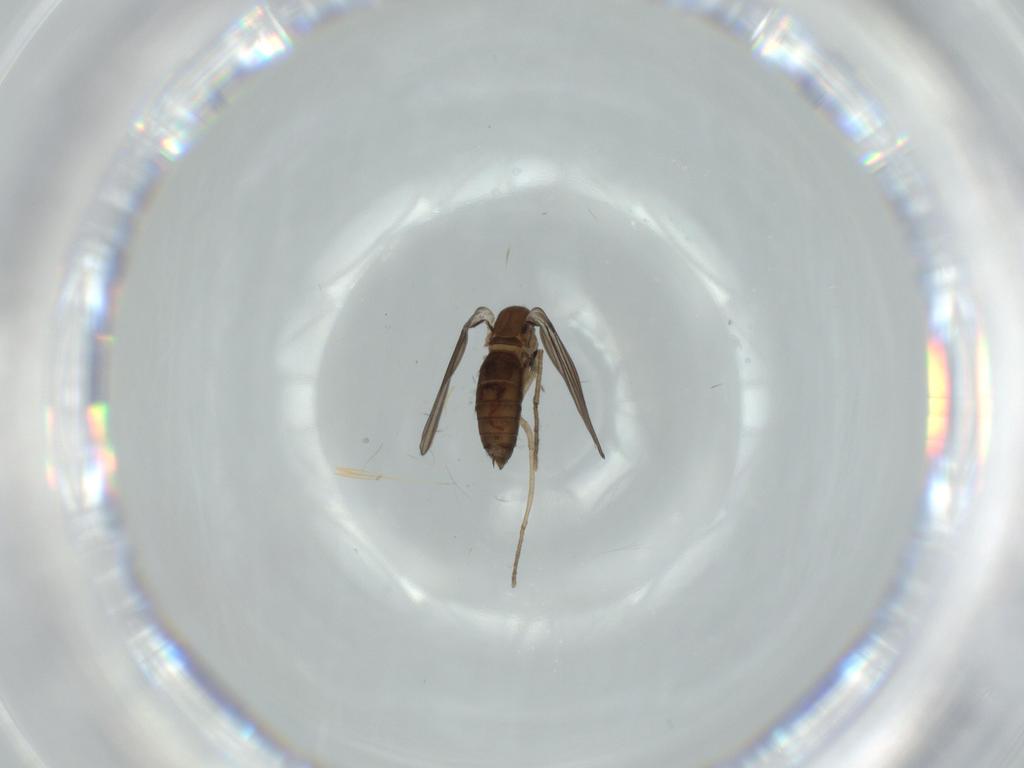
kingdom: Animalia
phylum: Arthropoda
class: Insecta
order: Diptera
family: Psychodidae
